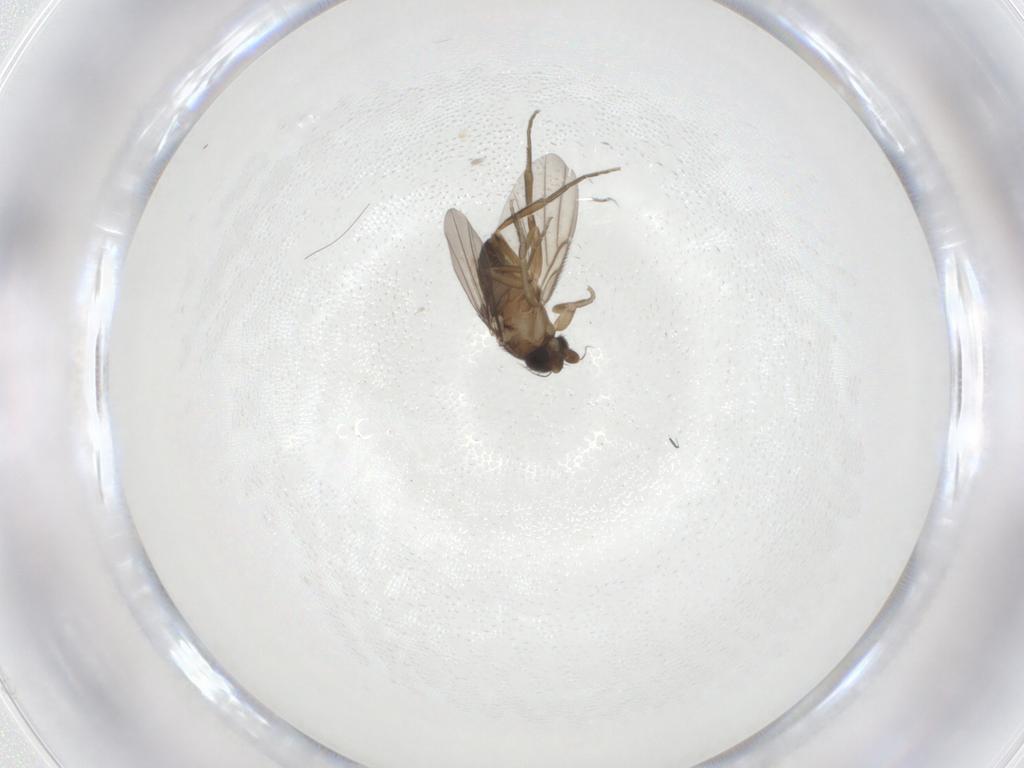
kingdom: Animalia
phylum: Arthropoda
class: Insecta
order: Diptera
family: Phoridae
